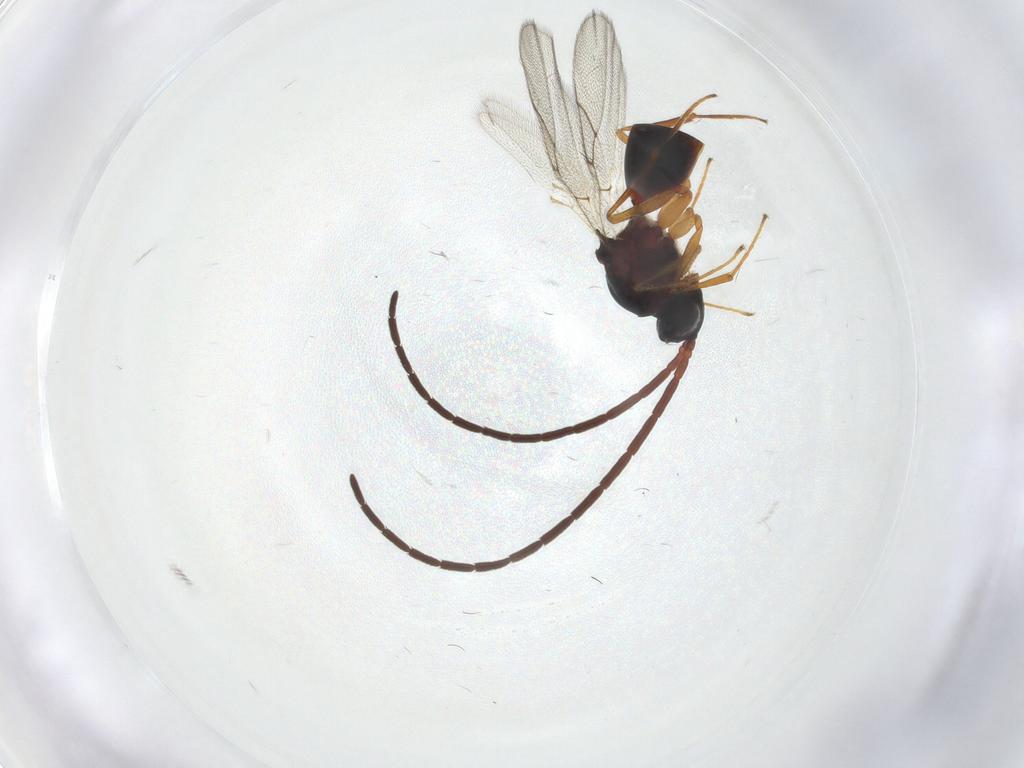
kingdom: Animalia
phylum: Arthropoda
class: Insecta
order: Hymenoptera
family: Figitidae
